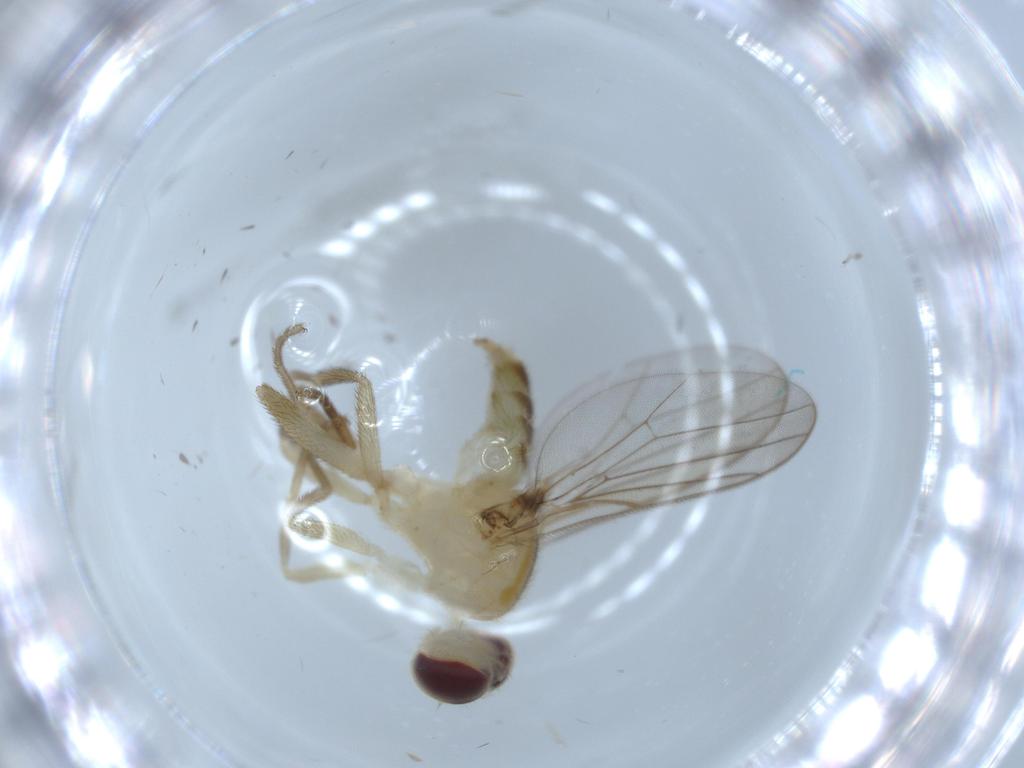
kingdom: Animalia
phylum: Arthropoda
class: Insecta
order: Diptera
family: Chloropidae
